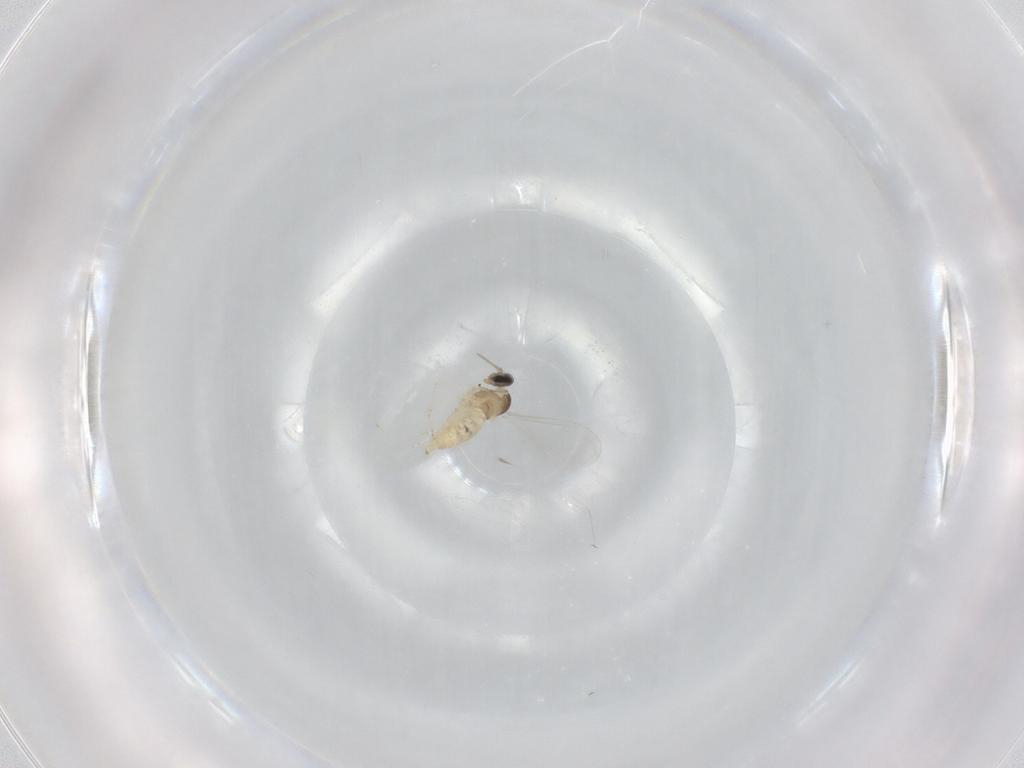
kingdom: Animalia
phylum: Arthropoda
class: Insecta
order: Diptera
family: Cecidomyiidae
